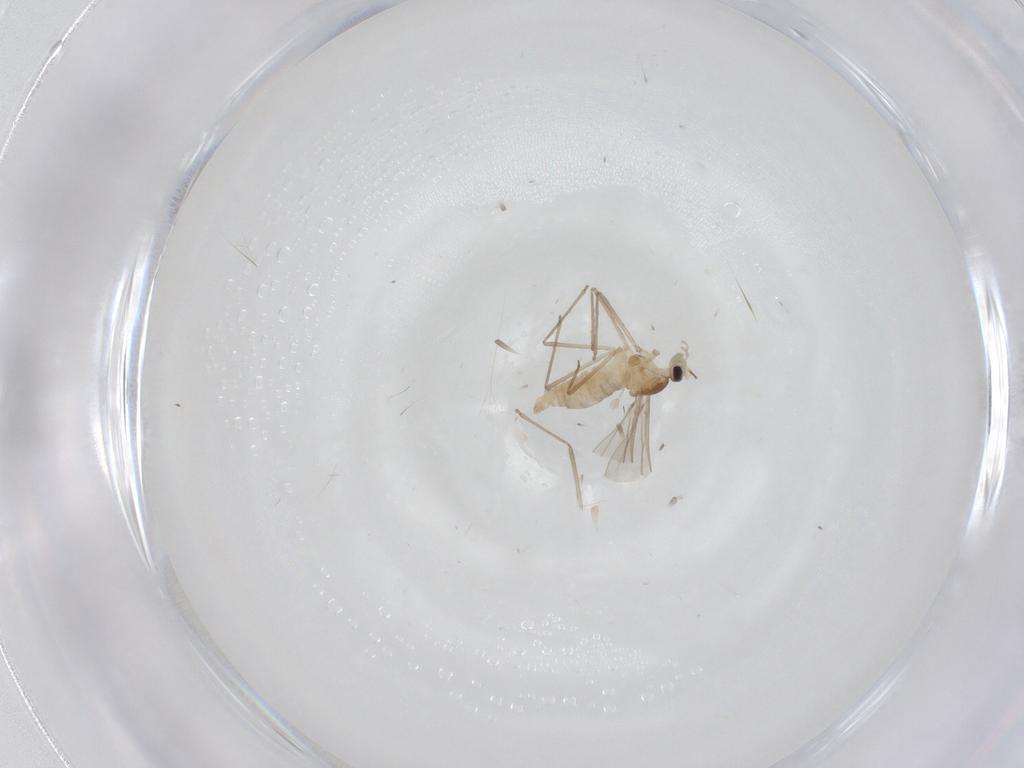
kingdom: Animalia
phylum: Arthropoda
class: Insecta
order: Diptera
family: Cecidomyiidae
